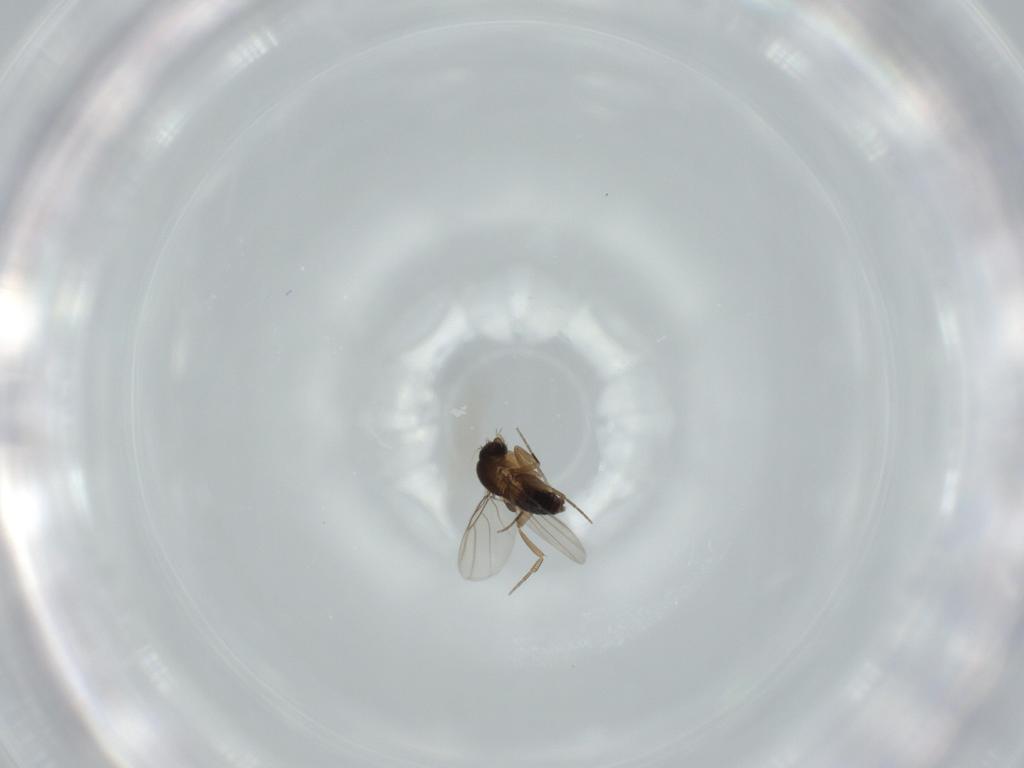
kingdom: Animalia
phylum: Arthropoda
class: Insecta
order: Diptera
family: Phoridae
